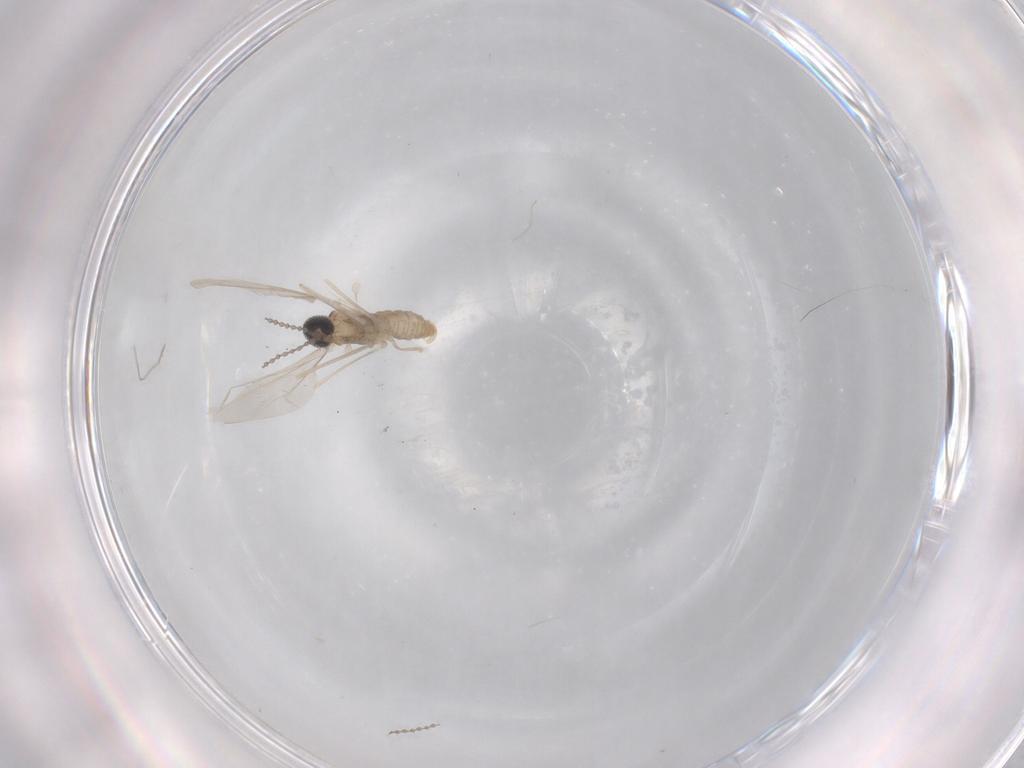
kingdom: Animalia
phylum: Arthropoda
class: Insecta
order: Diptera
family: Cecidomyiidae
